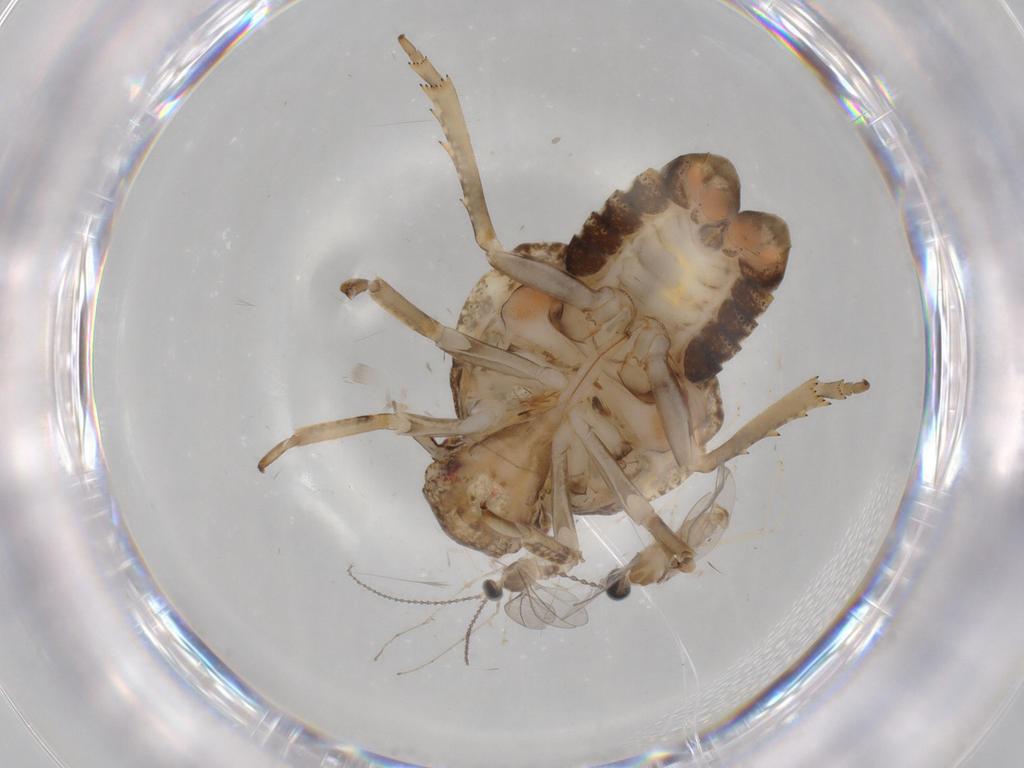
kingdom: Animalia
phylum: Arthropoda
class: Insecta
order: Hemiptera
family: Flatidae
